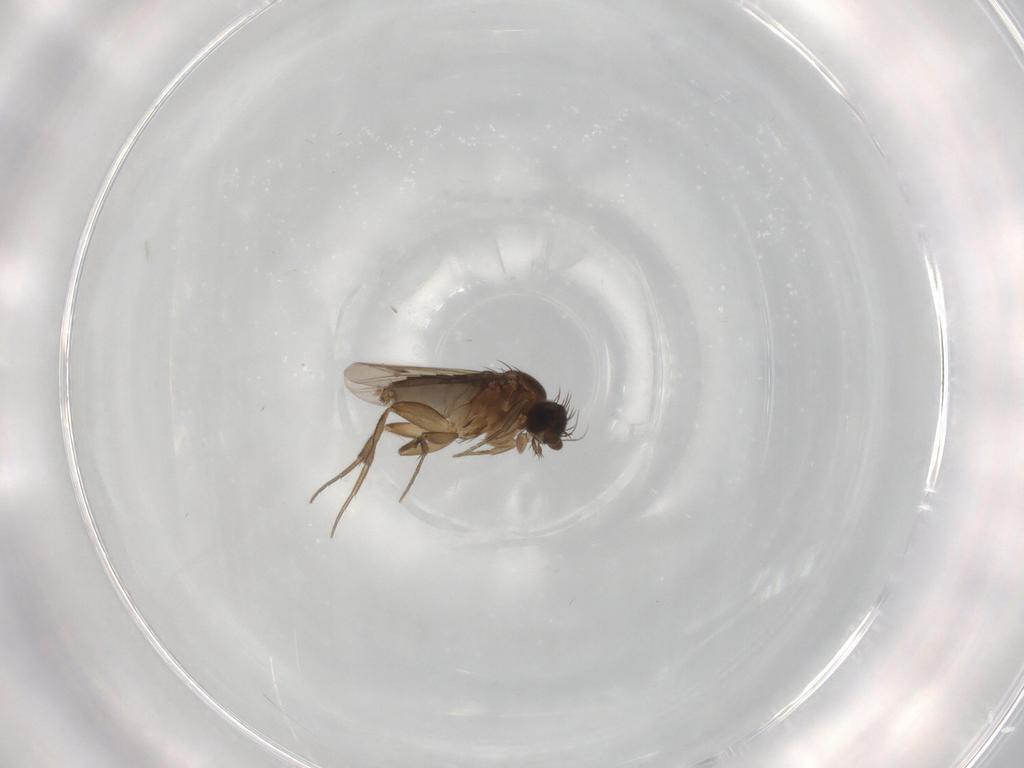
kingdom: Animalia
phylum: Arthropoda
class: Insecta
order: Diptera
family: Phoridae
